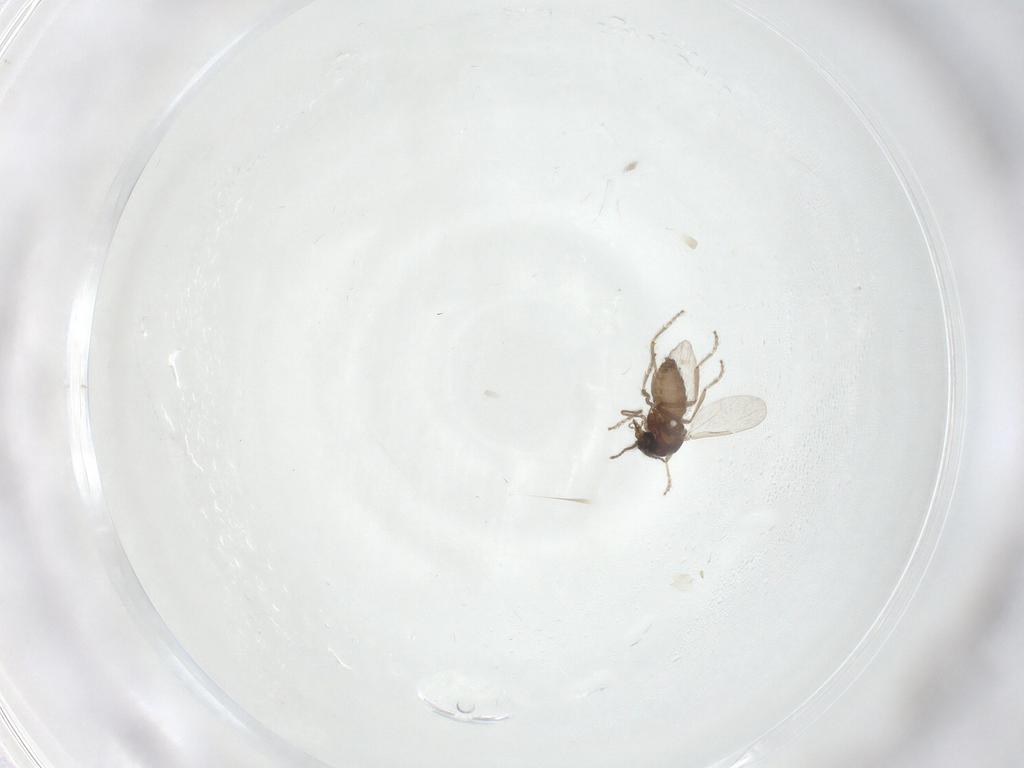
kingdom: Animalia
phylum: Arthropoda
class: Insecta
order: Diptera
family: Ceratopogonidae
